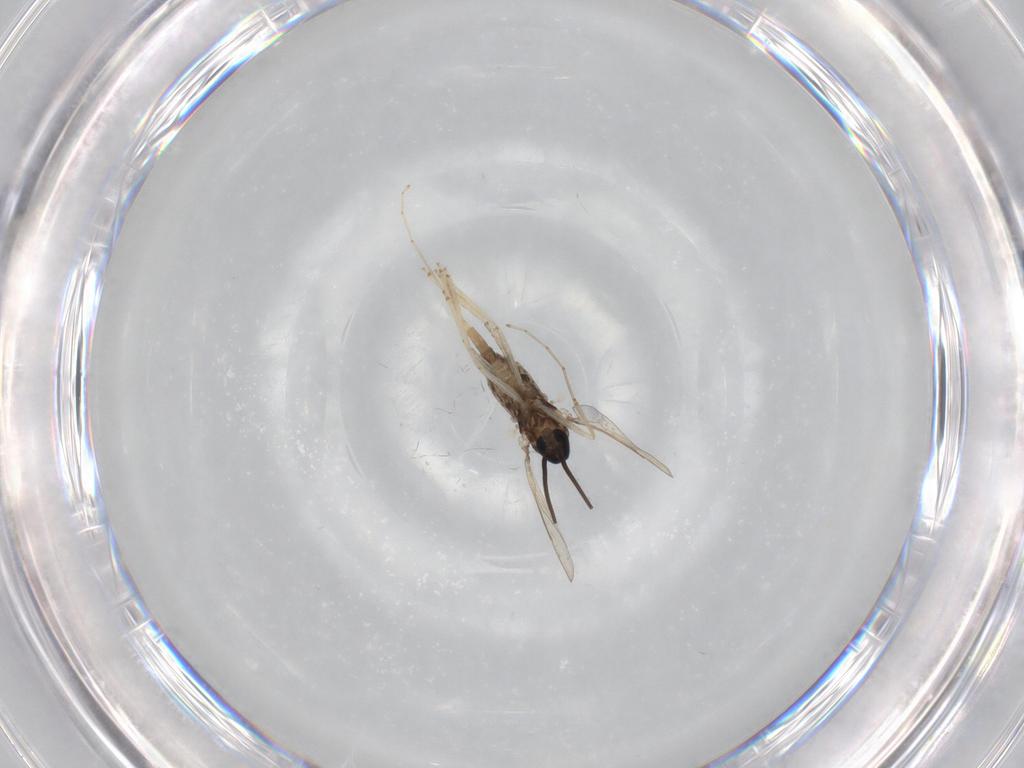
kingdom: Animalia
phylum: Arthropoda
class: Insecta
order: Diptera
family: Cecidomyiidae
